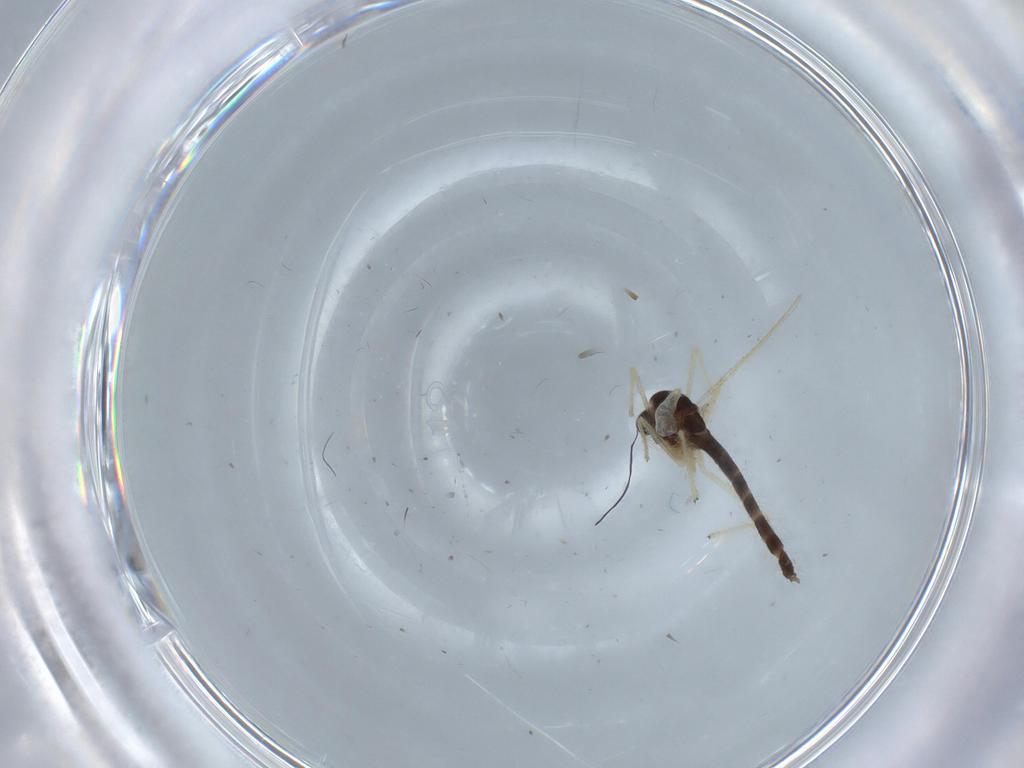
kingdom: Animalia
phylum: Arthropoda
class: Insecta
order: Diptera
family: Chironomidae
